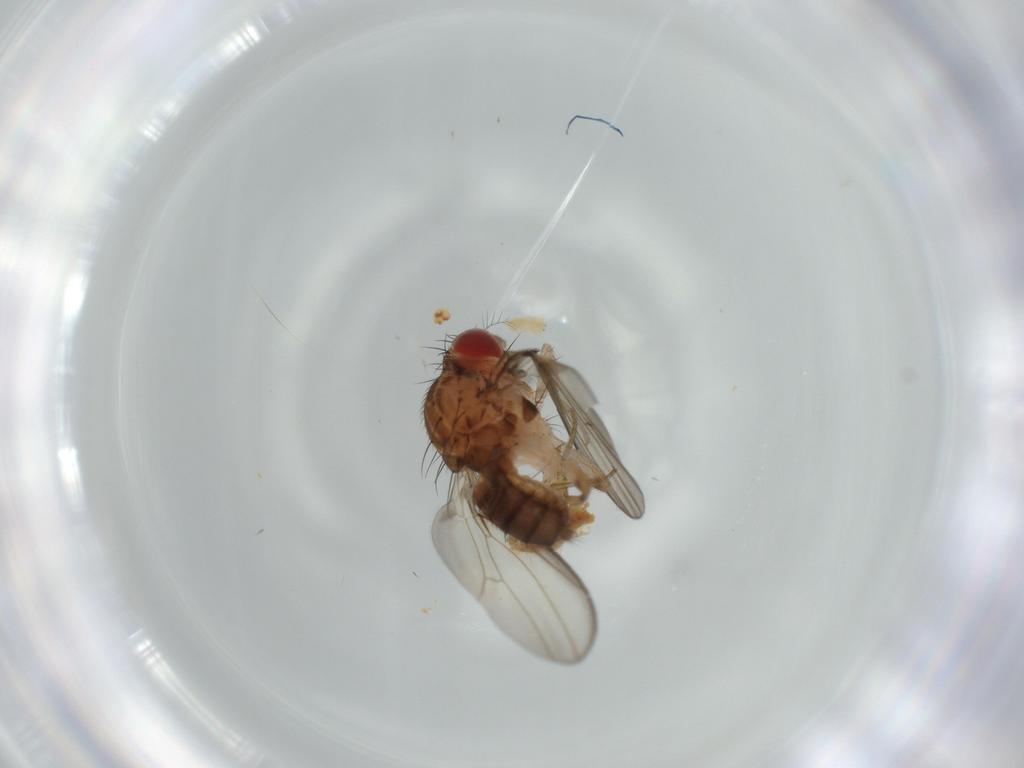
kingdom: Animalia
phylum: Arthropoda
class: Insecta
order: Diptera
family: Drosophilidae
